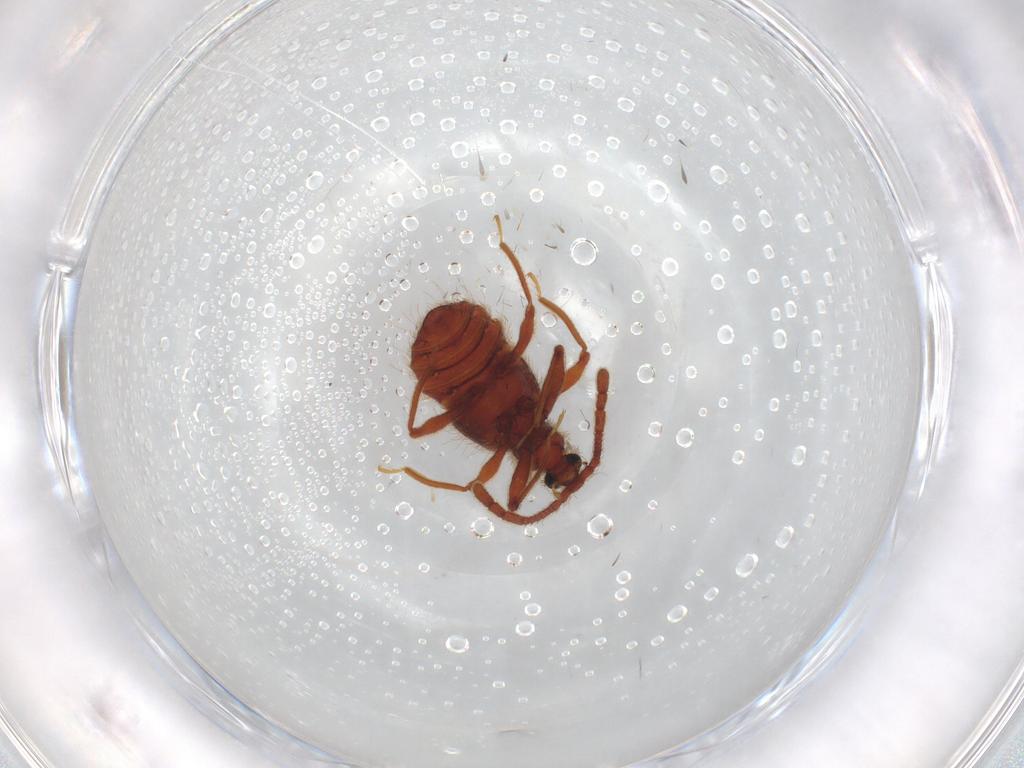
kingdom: Animalia
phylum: Arthropoda
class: Insecta
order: Coleoptera
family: Staphylinidae
